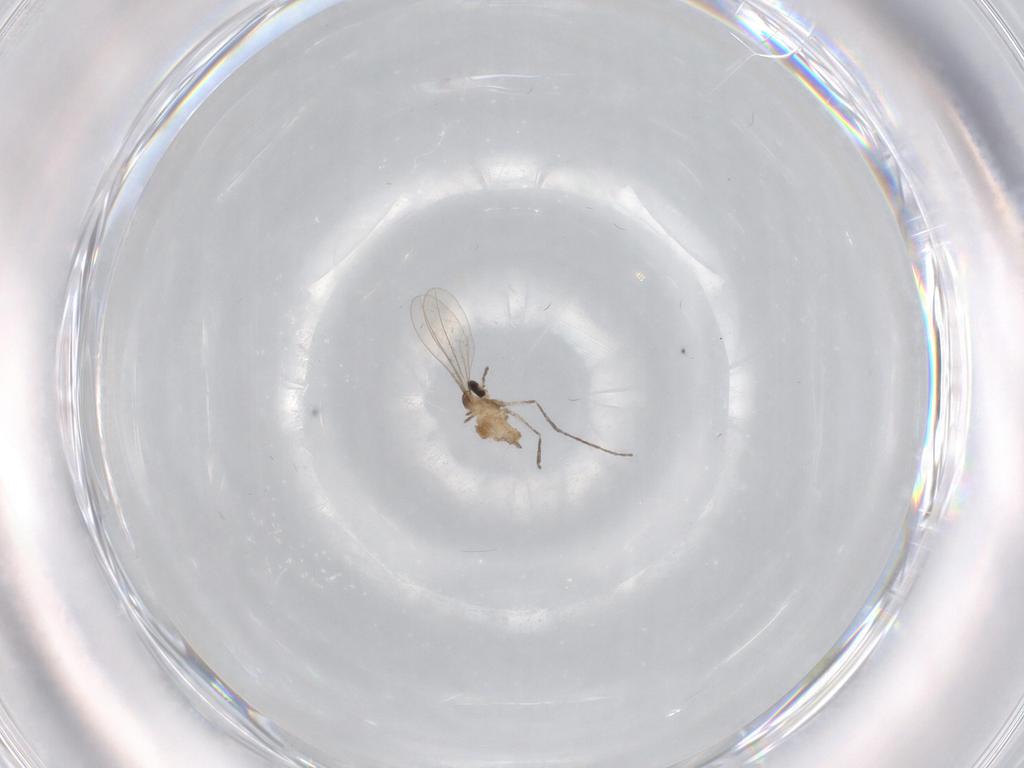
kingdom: Animalia
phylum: Arthropoda
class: Insecta
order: Diptera
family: Cecidomyiidae
